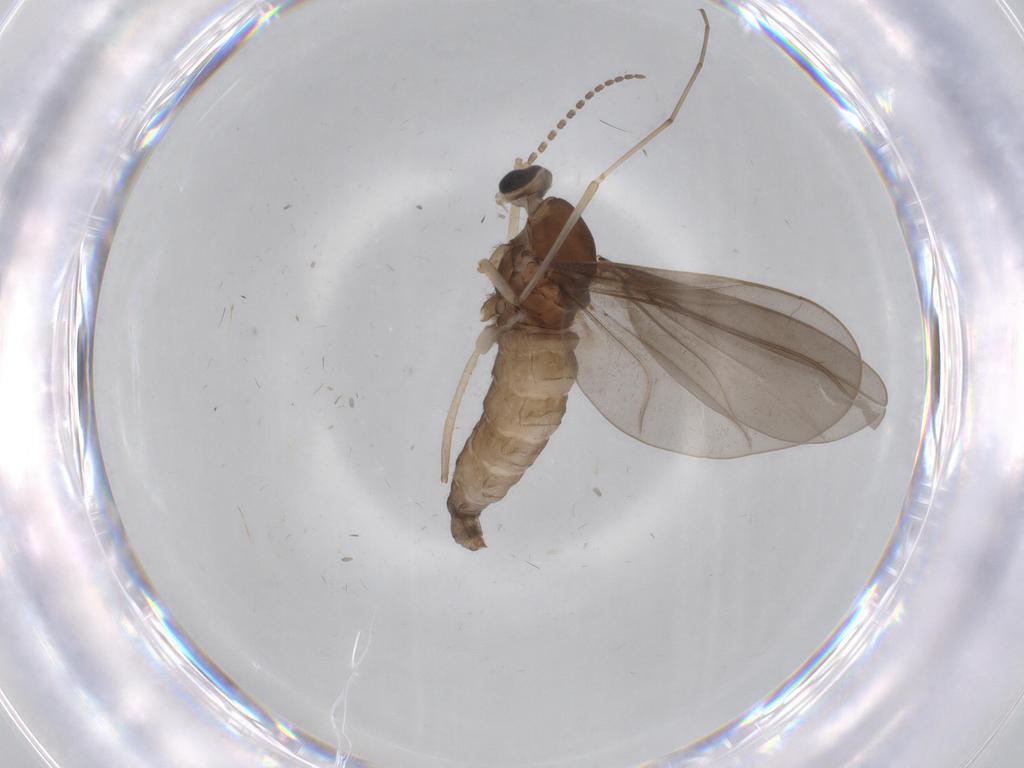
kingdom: Animalia
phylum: Arthropoda
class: Insecta
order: Diptera
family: Cecidomyiidae
